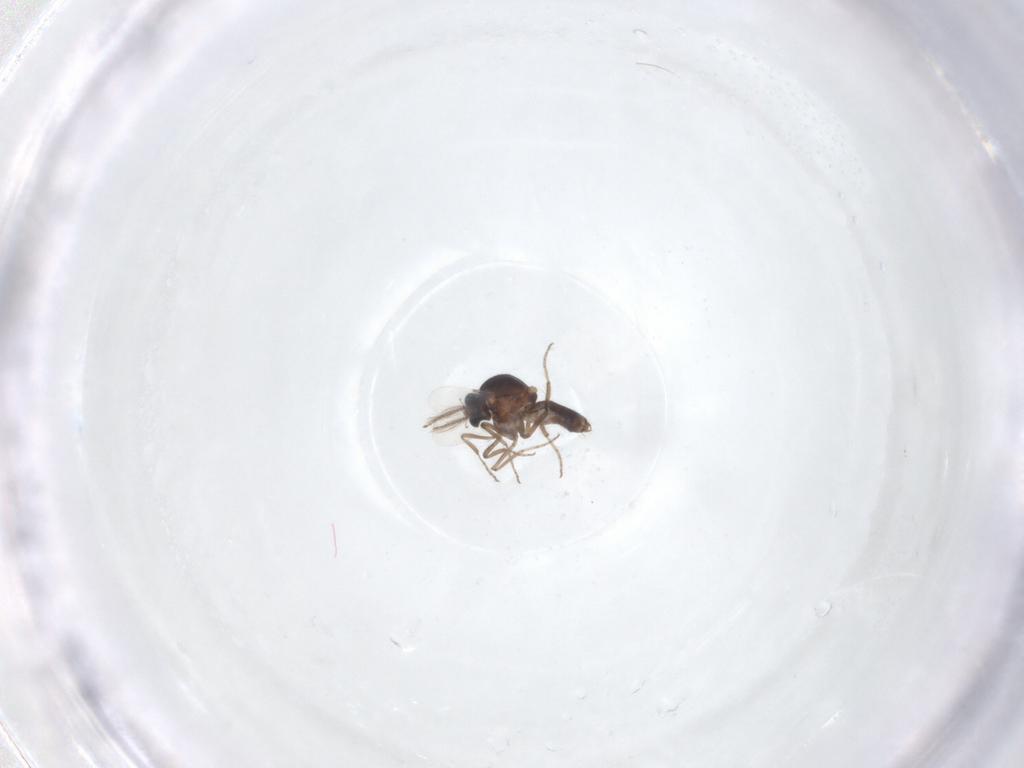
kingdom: Animalia
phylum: Arthropoda
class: Insecta
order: Diptera
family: Ceratopogonidae
